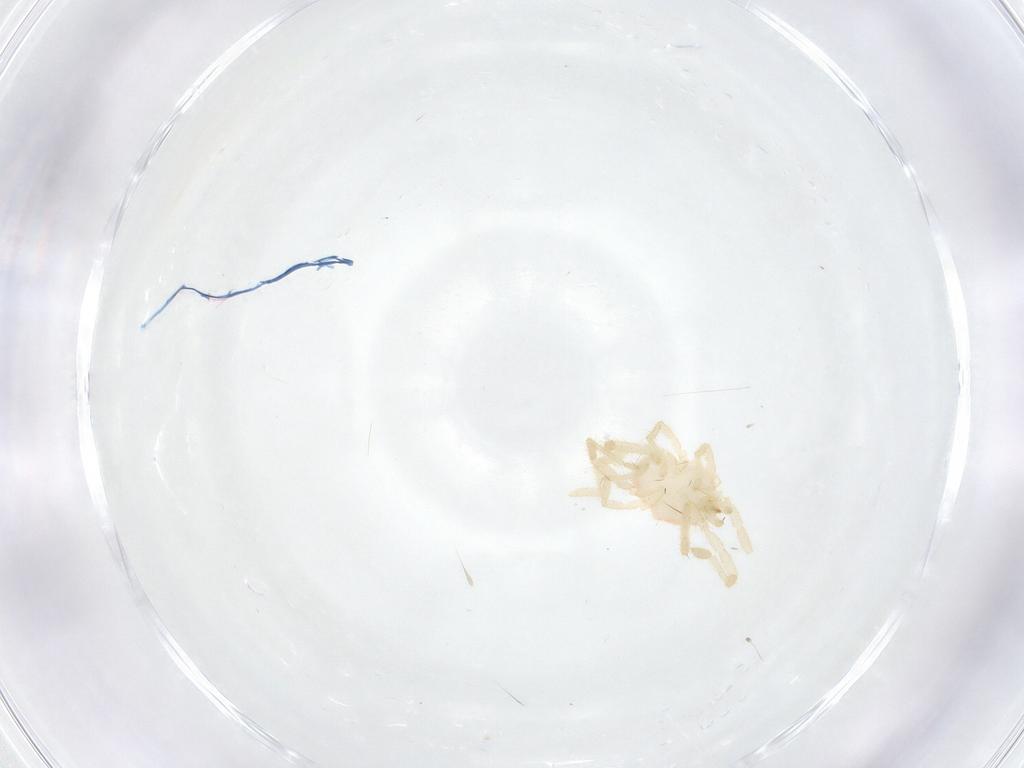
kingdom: Animalia
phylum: Arthropoda
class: Arachnida
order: Trombidiformes
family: Erythraeidae
